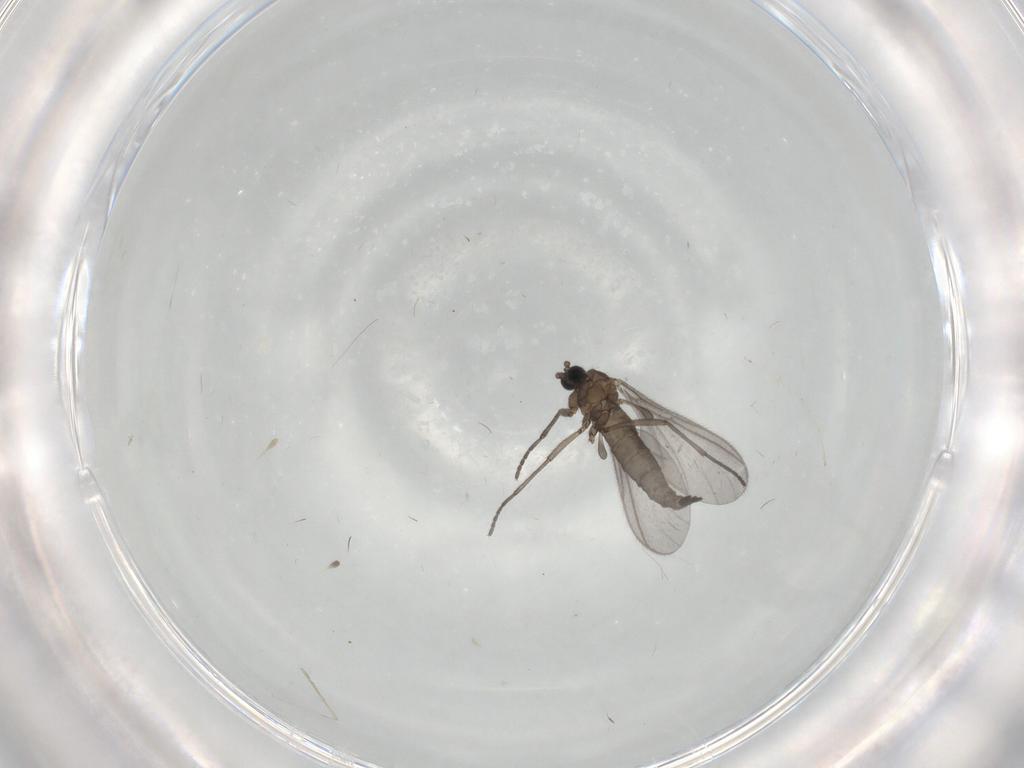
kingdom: Animalia
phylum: Arthropoda
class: Insecta
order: Diptera
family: Sciaridae
